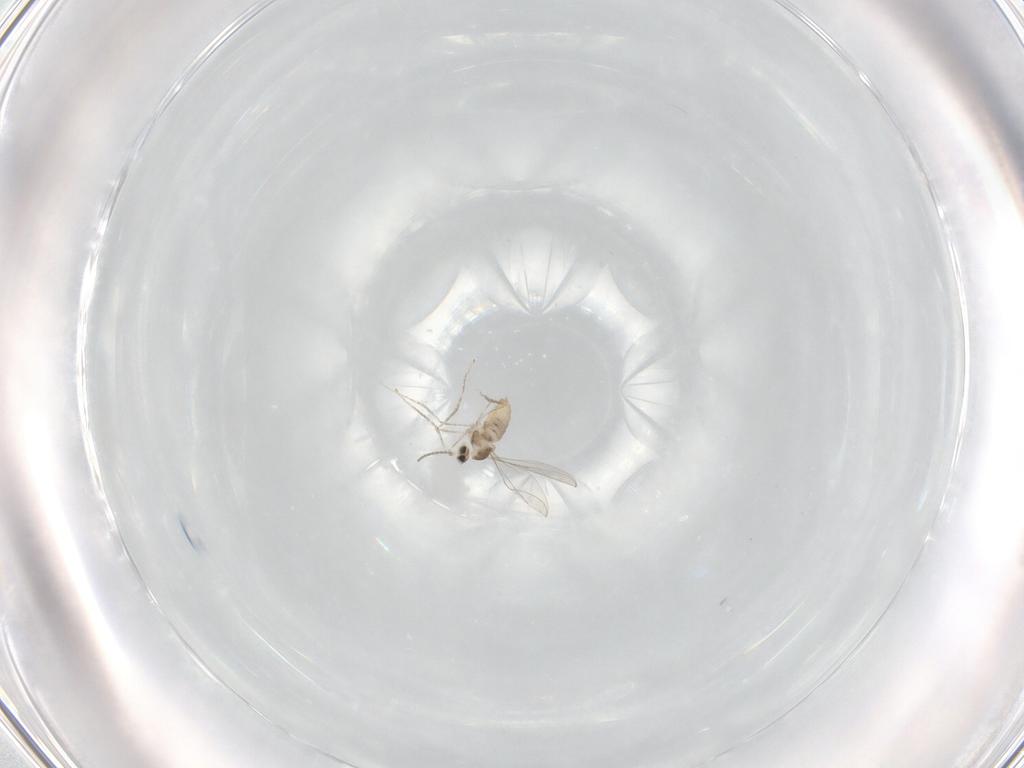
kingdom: Animalia
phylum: Arthropoda
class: Insecta
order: Diptera
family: Cecidomyiidae
